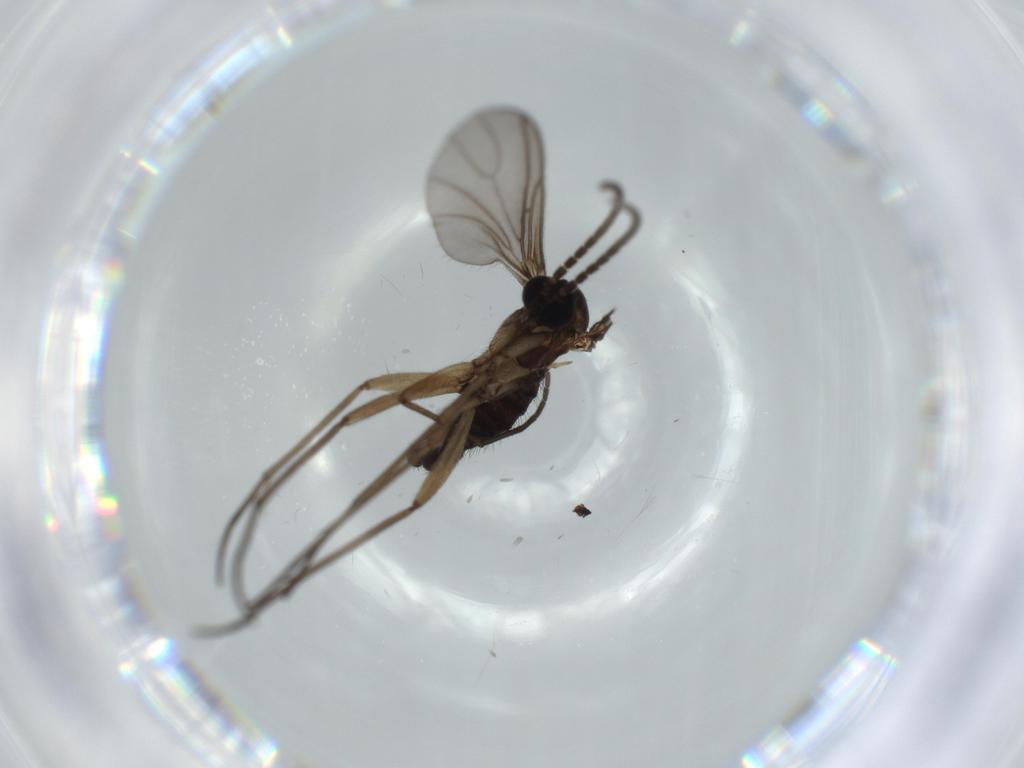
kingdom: Animalia
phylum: Arthropoda
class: Insecta
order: Diptera
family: Sciaridae
